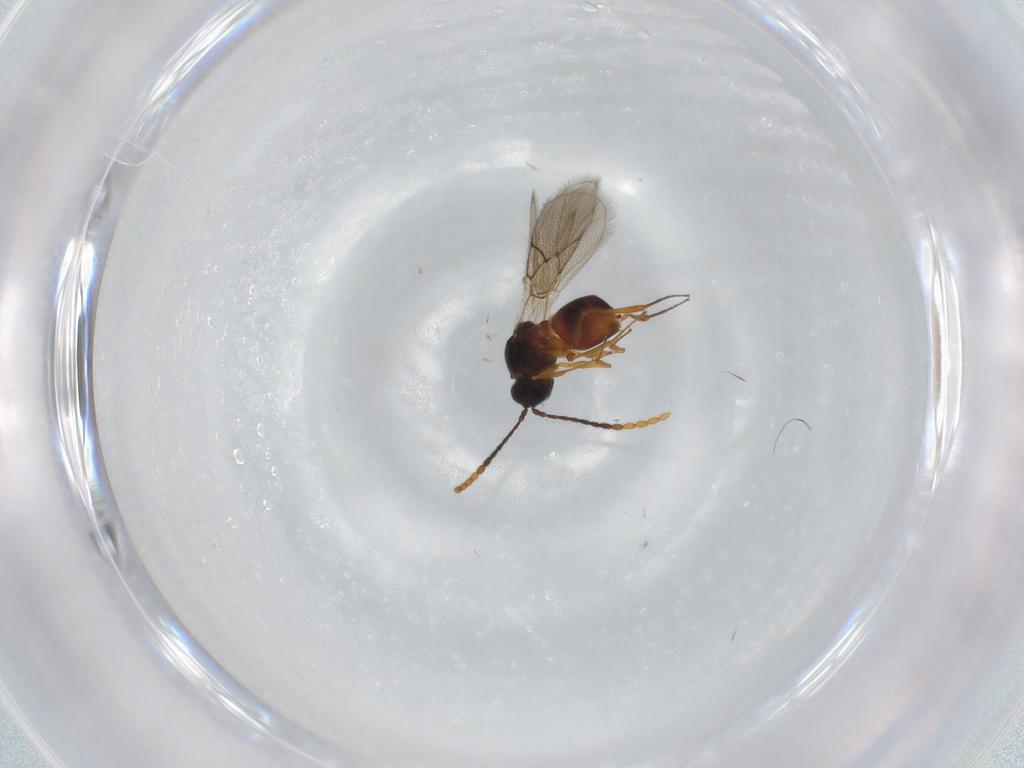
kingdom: Animalia
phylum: Arthropoda
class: Insecta
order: Hymenoptera
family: Figitidae
